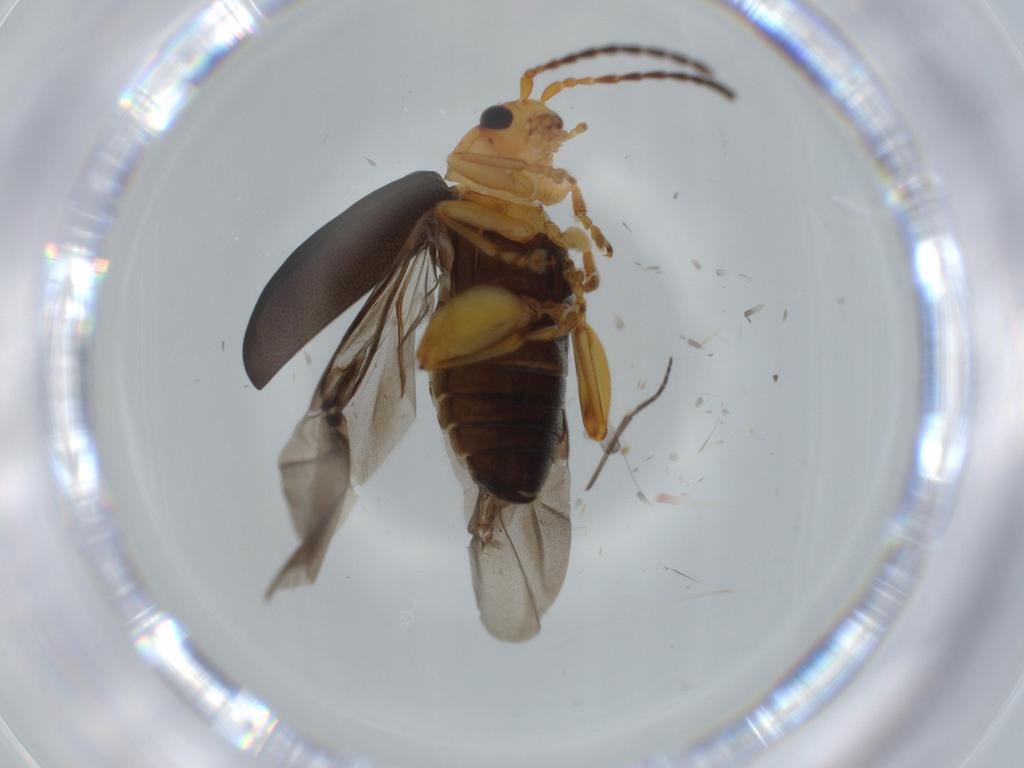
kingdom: Animalia
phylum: Arthropoda
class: Insecta
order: Coleoptera
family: Chrysomelidae
